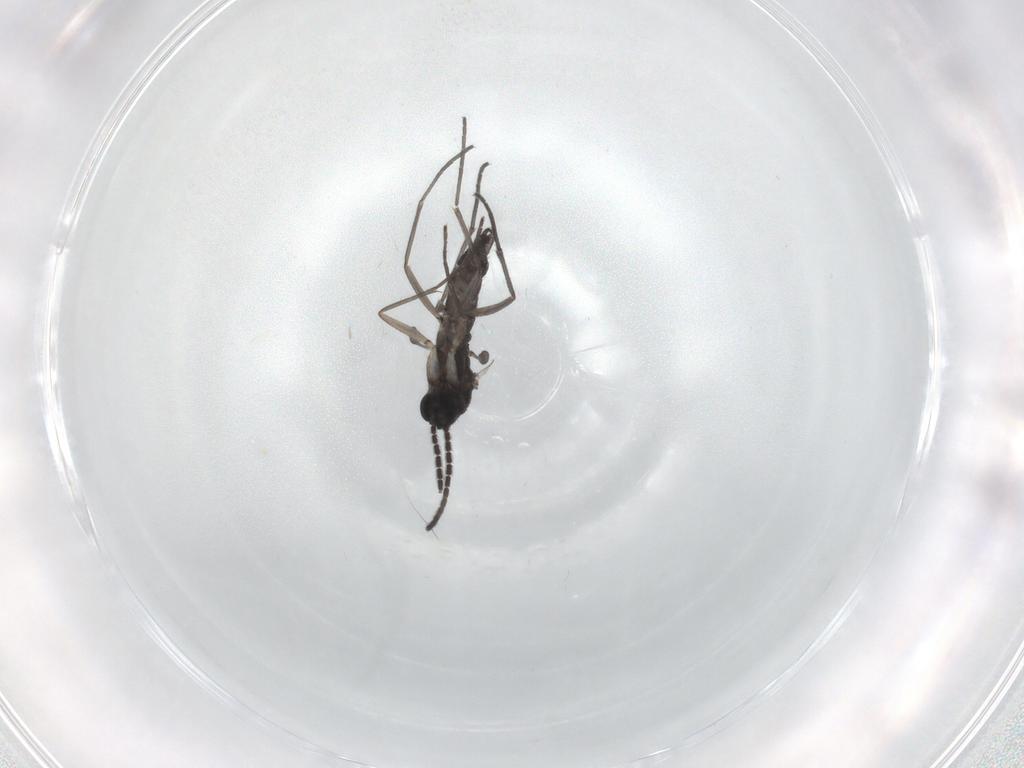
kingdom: Animalia
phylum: Arthropoda
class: Insecta
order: Diptera
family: Sciaridae
